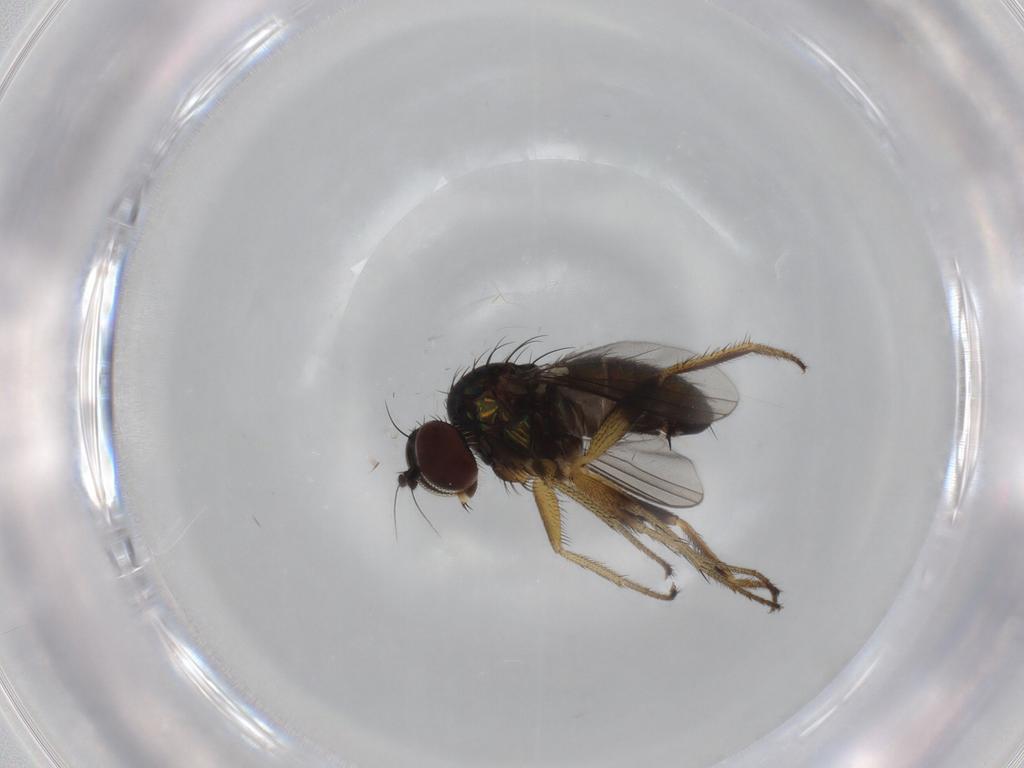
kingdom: Animalia
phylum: Arthropoda
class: Insecta
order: Diptera
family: Dolichopodidae
